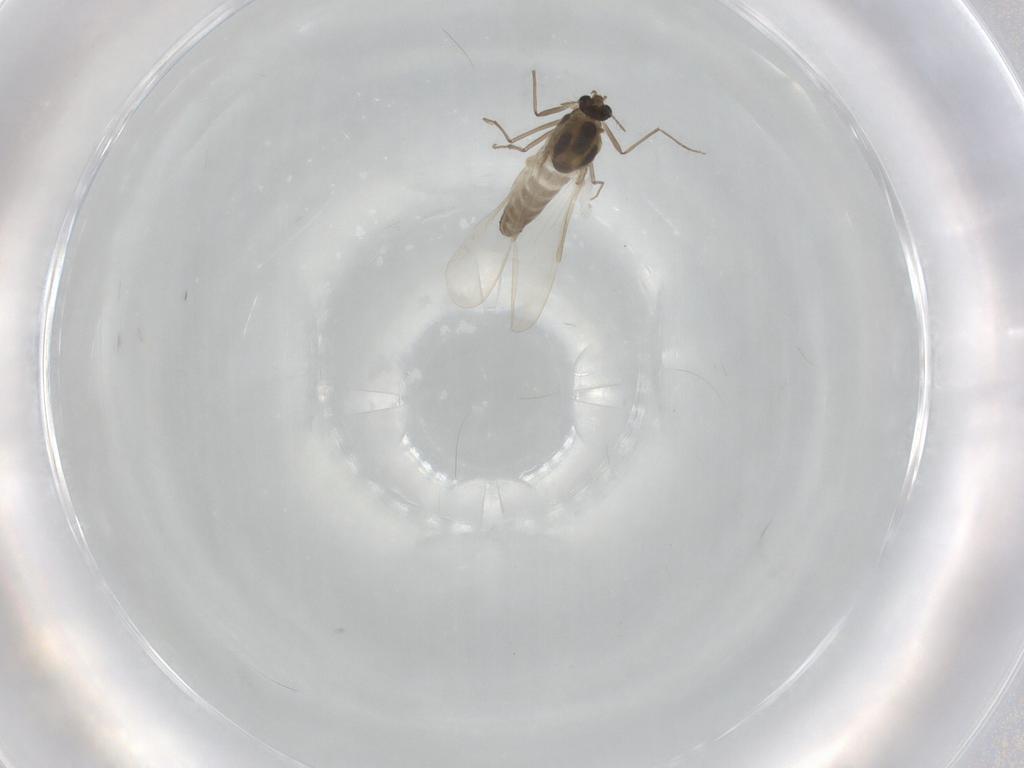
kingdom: Animalia
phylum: Arthropoda
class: Insecta
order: Diptera
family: Chironomidae
